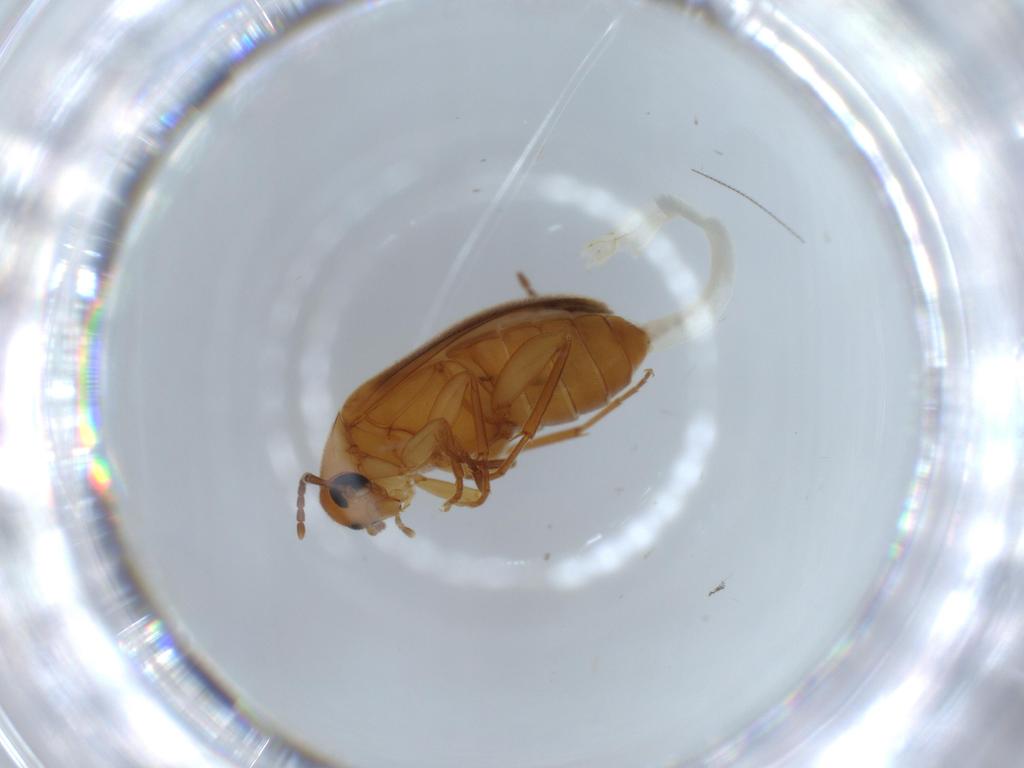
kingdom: Animalia
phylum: Arthropoda
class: Insecta
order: Coleoptera
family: Scraptiidae
